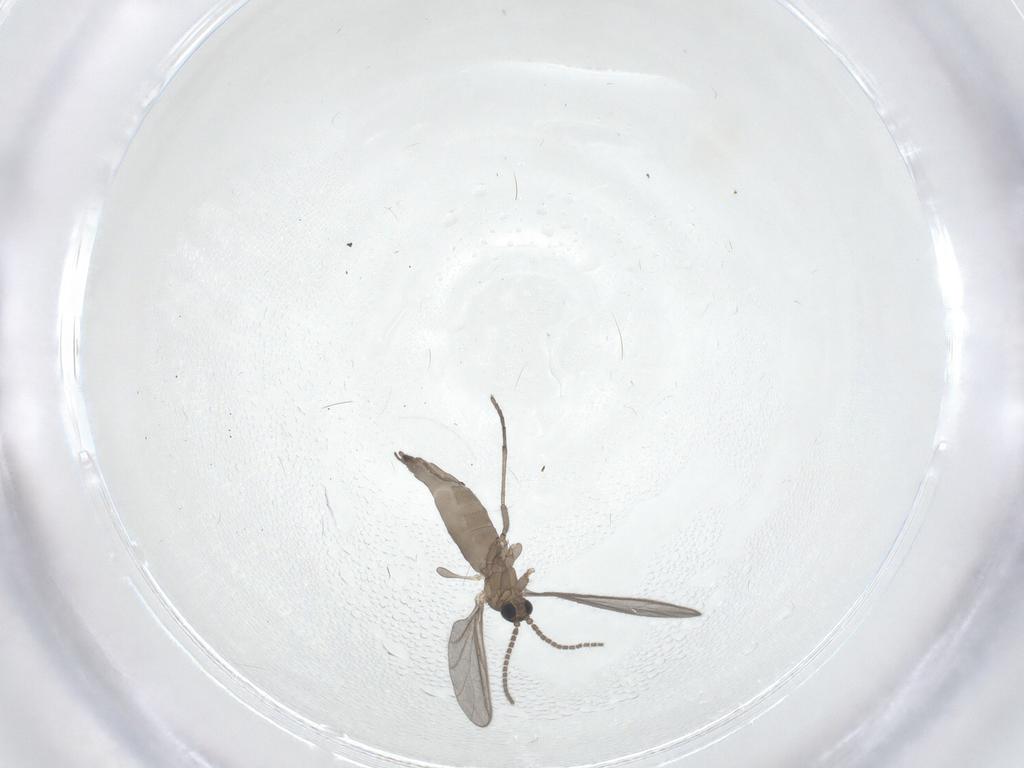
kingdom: Animalia
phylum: Arthropoda
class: Insecta
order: Diptera
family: Sciaridae
